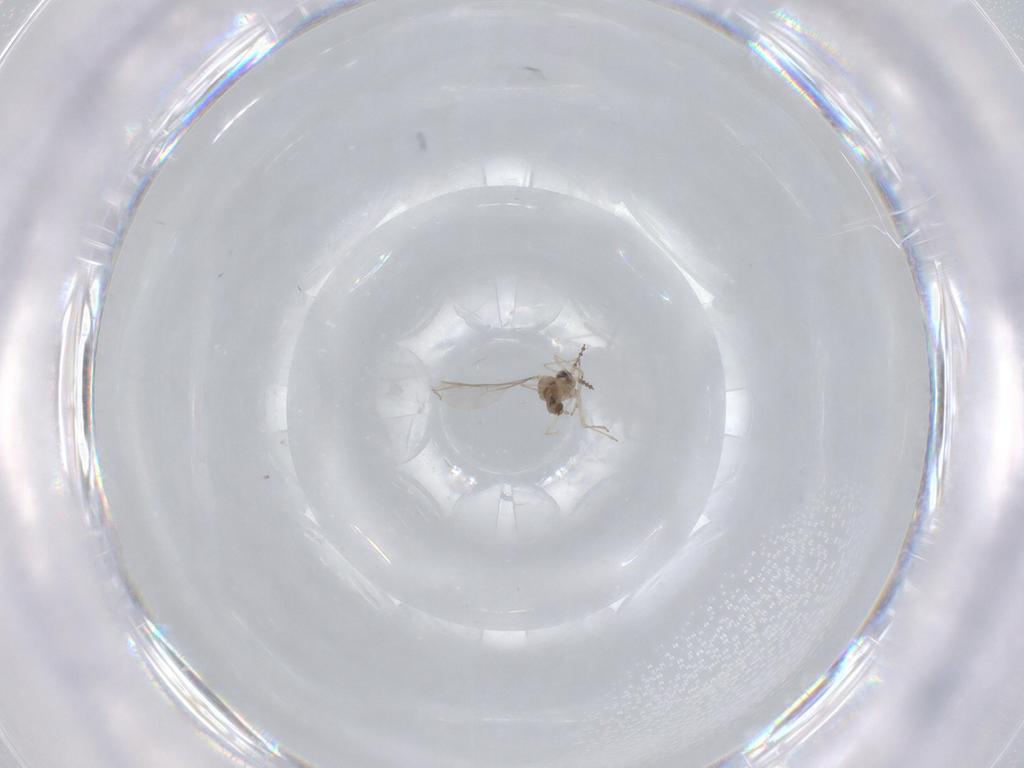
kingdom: Animalia
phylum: Arthropoda
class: Insecta
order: Diptera
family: Cecidomyiidae
